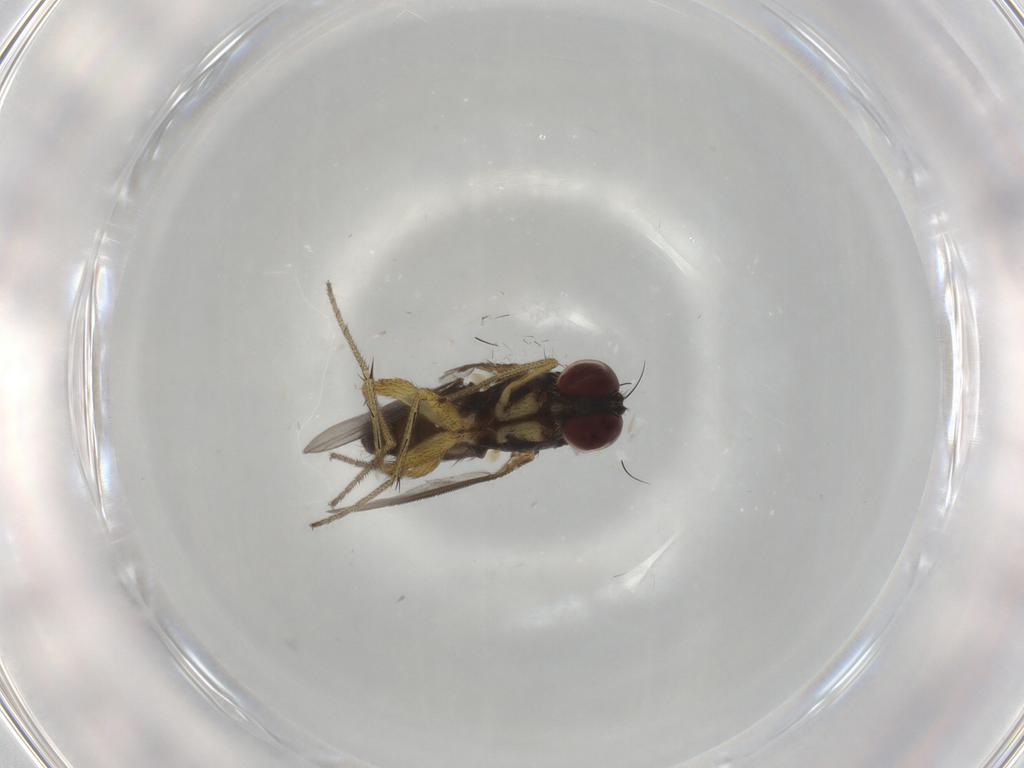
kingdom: Animalia
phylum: Arthropoda
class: Insecta
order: Diptera
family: Dolichopodidae
